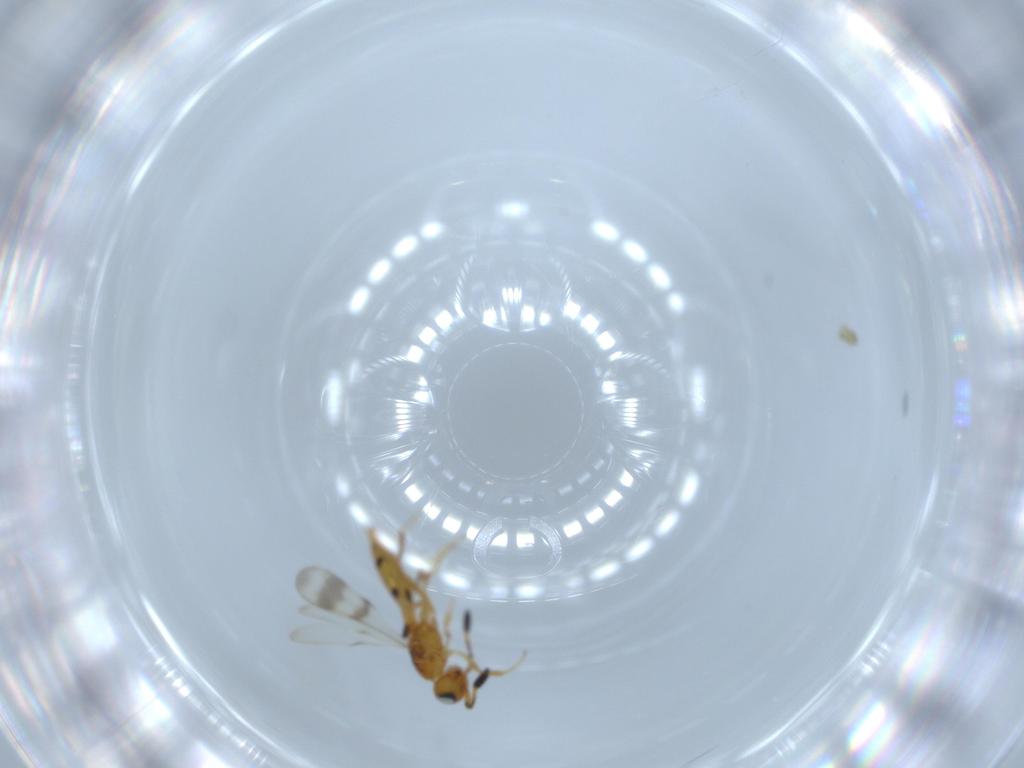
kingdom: Animalia
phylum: Arthropoda
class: Insecta
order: Hymenoptera
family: Scelionidae
